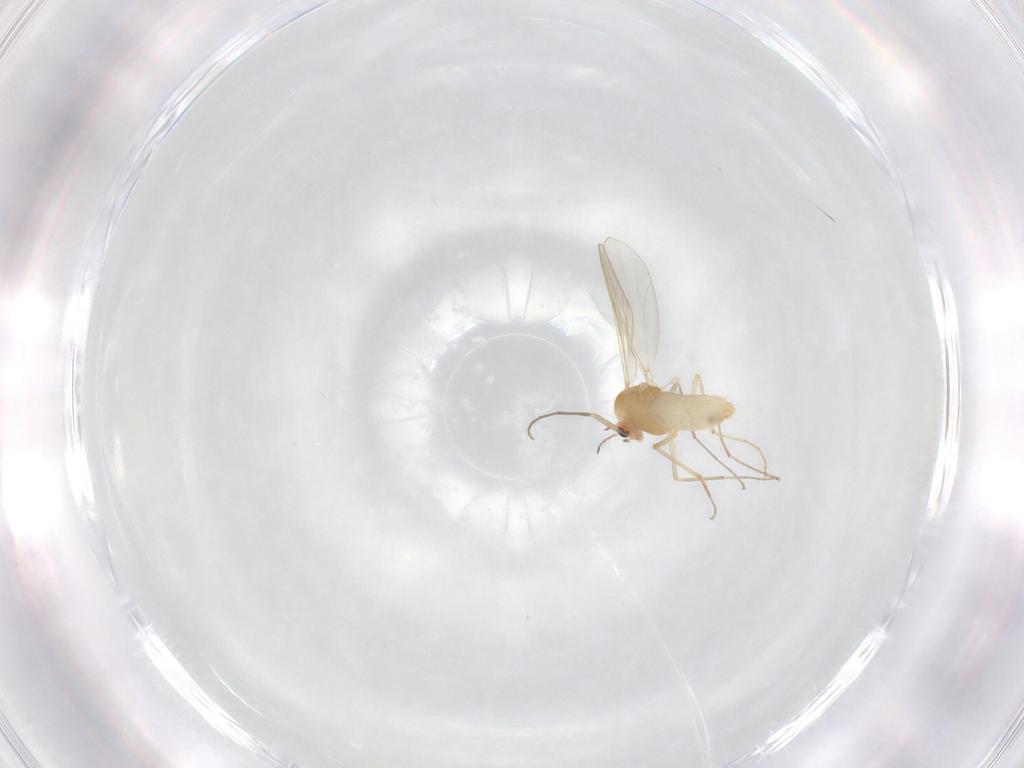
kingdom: Animalia
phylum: Arthropoda
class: Insecta
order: Diptera
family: Chironomidae
